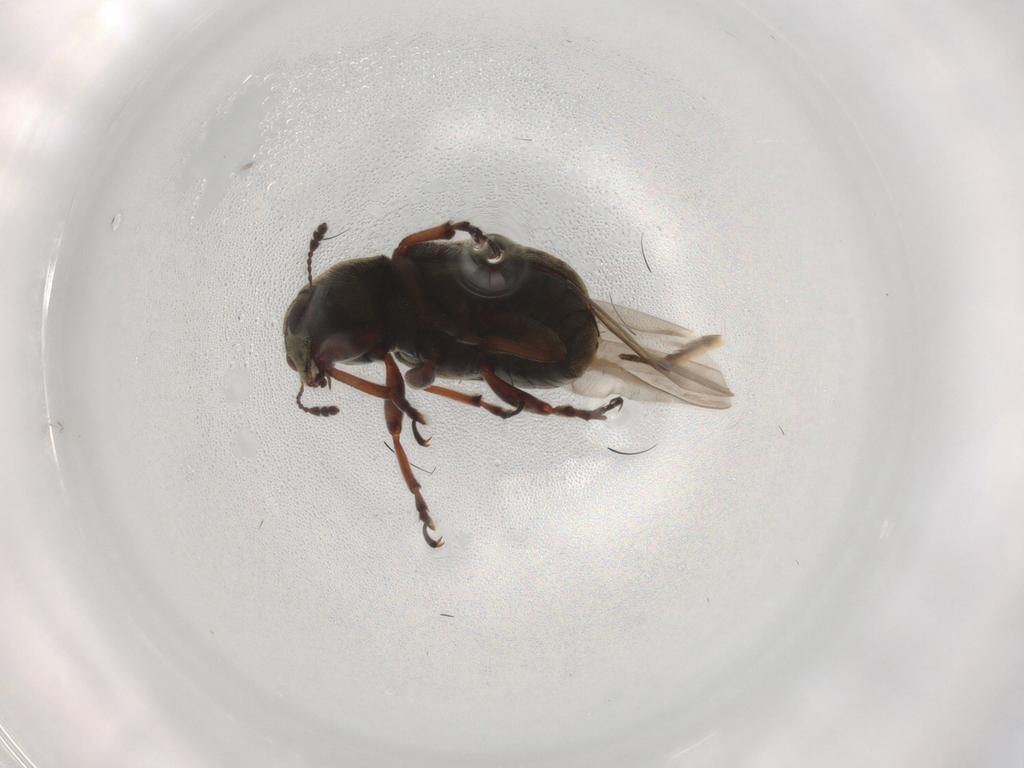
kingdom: Animalia
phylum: Arthropoda
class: Insecta
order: Coleoptera
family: Anthribidae
